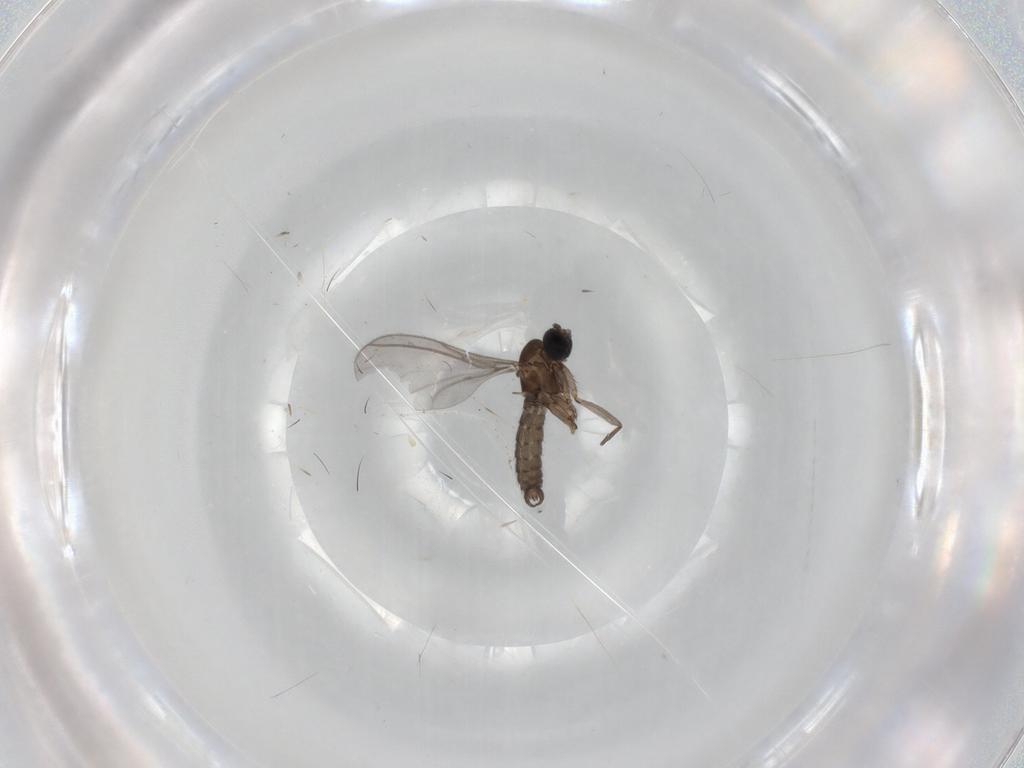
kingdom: Animalia
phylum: Arthropoda
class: Insecta
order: Diptera
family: Sciaridae
